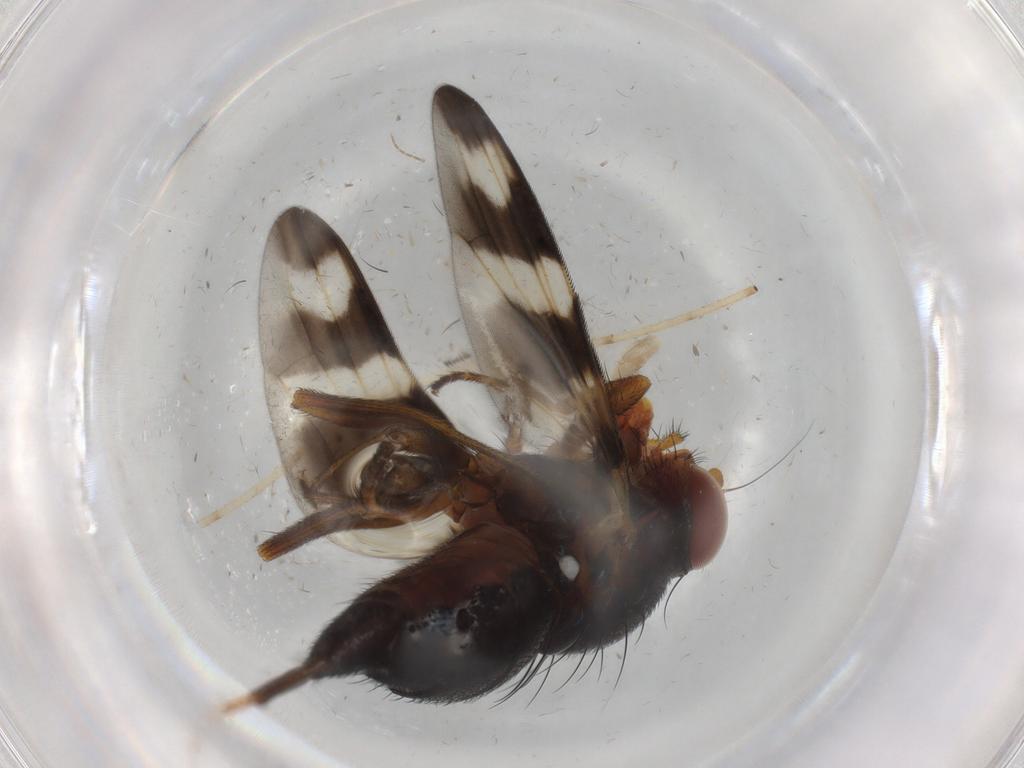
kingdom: Animalia
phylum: Arthropoda
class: Insecta
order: Diptera
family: Psychodidae
